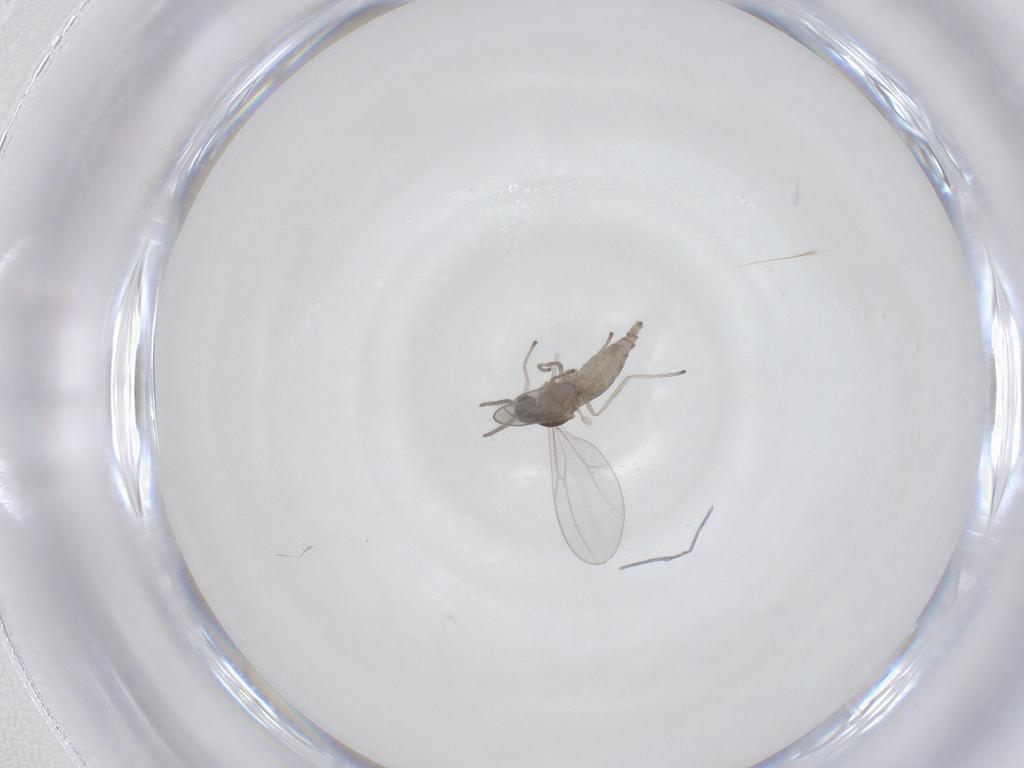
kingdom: Animalia
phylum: Arthropoda
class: Insecta
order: Diptera
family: Cecidomyiidae
